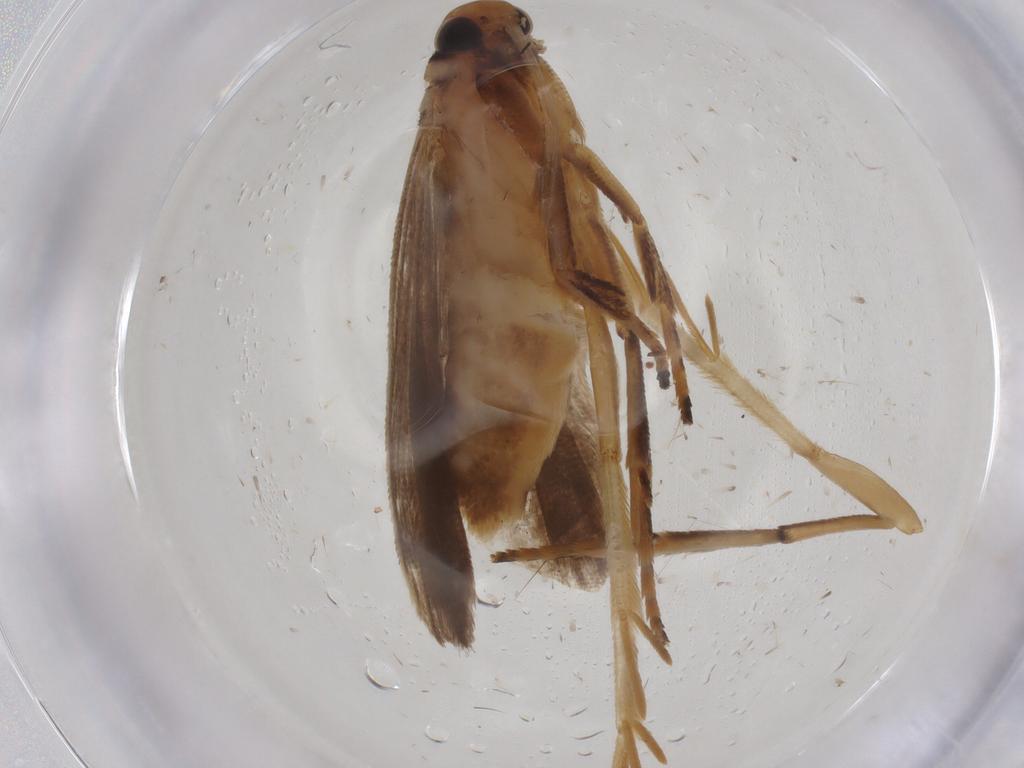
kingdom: Animalia
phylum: Arthropoda
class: Insecta
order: Lepidoptera
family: Gelechiidae
